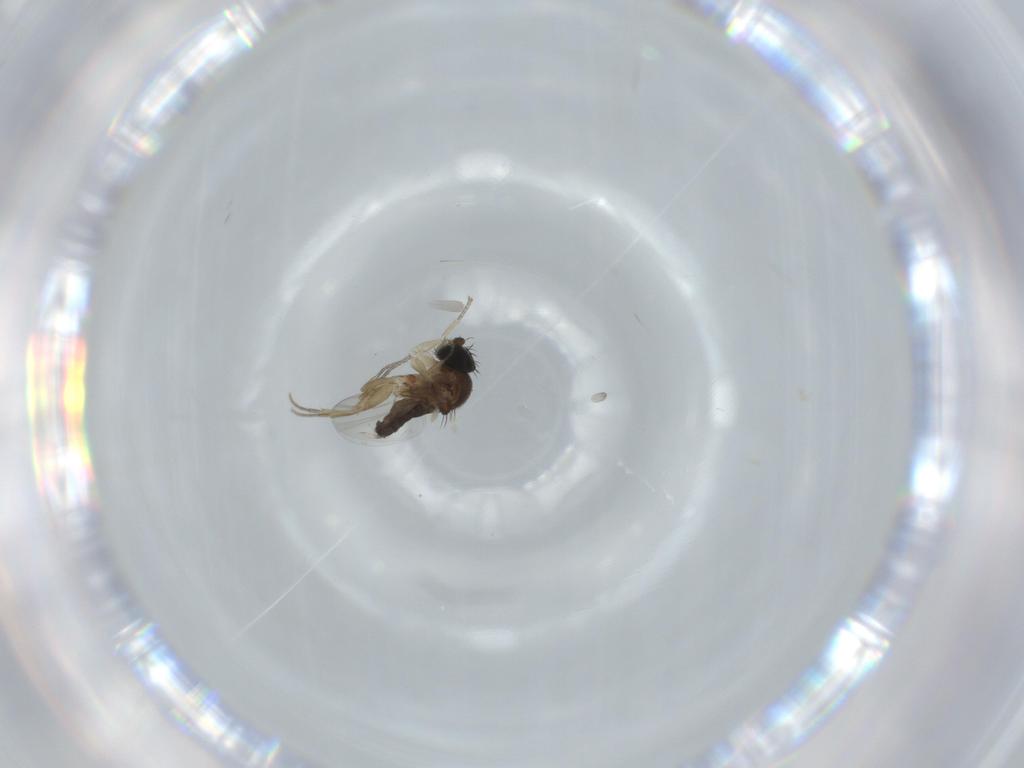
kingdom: Animalia
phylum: Arthropoda
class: Insecta
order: Diptera
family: Phoridae
